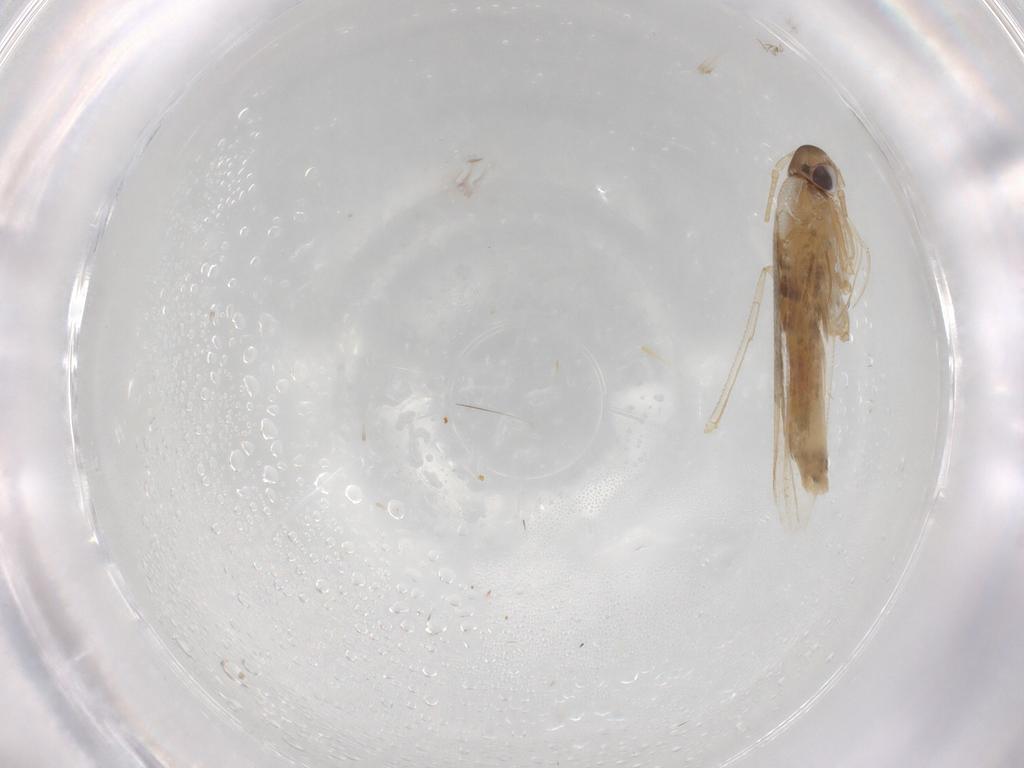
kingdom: Animalia
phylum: Arthropoda
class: Insecta
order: Lepidoptera
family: Cosmopterigidae
